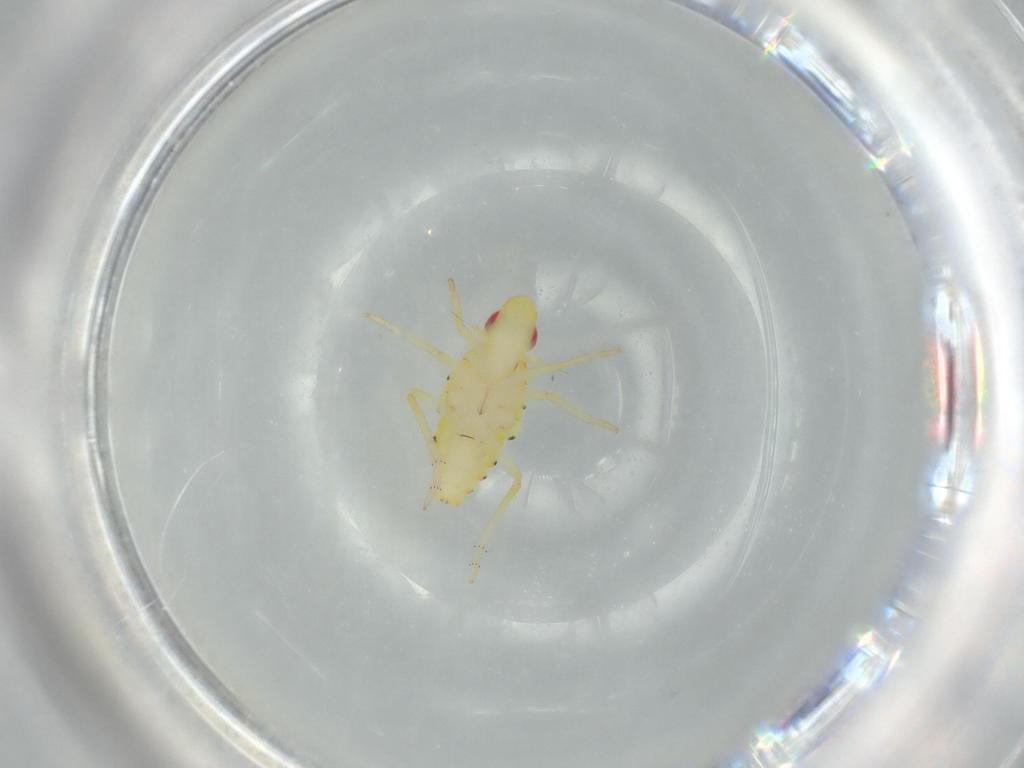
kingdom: Animalia
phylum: Arthropoda
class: Insecta
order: Hemiptera
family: Tropiduchidae
